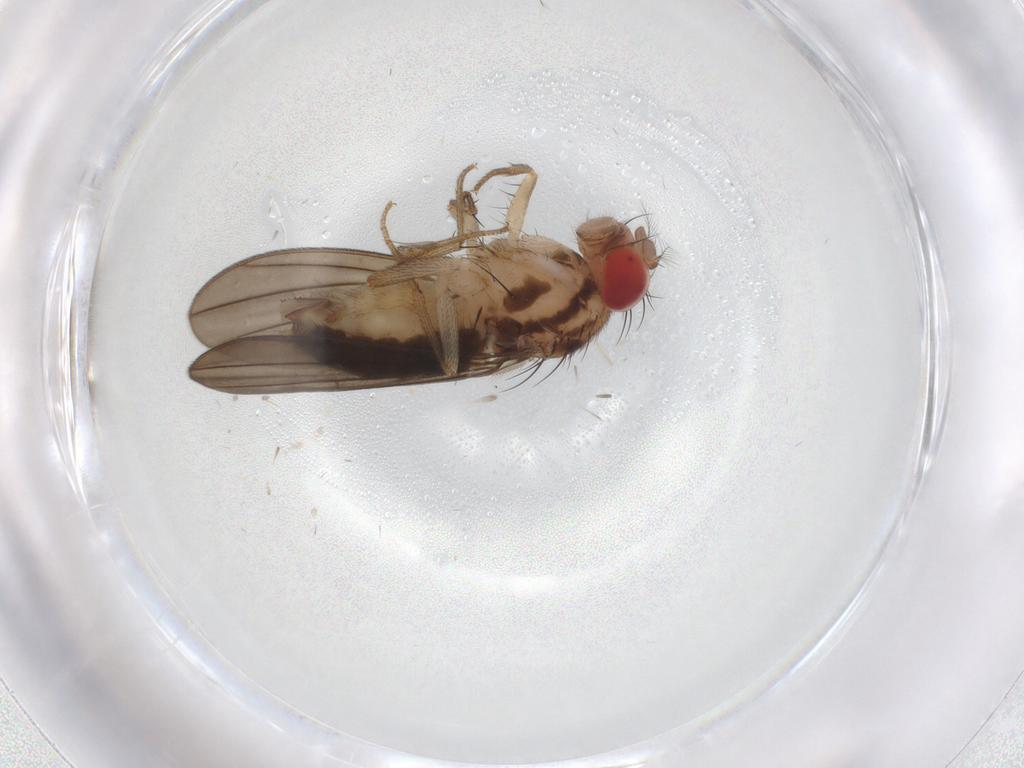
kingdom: Animalia
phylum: Arthropoda
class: Insecta
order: Diptera
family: Drosophilidae
